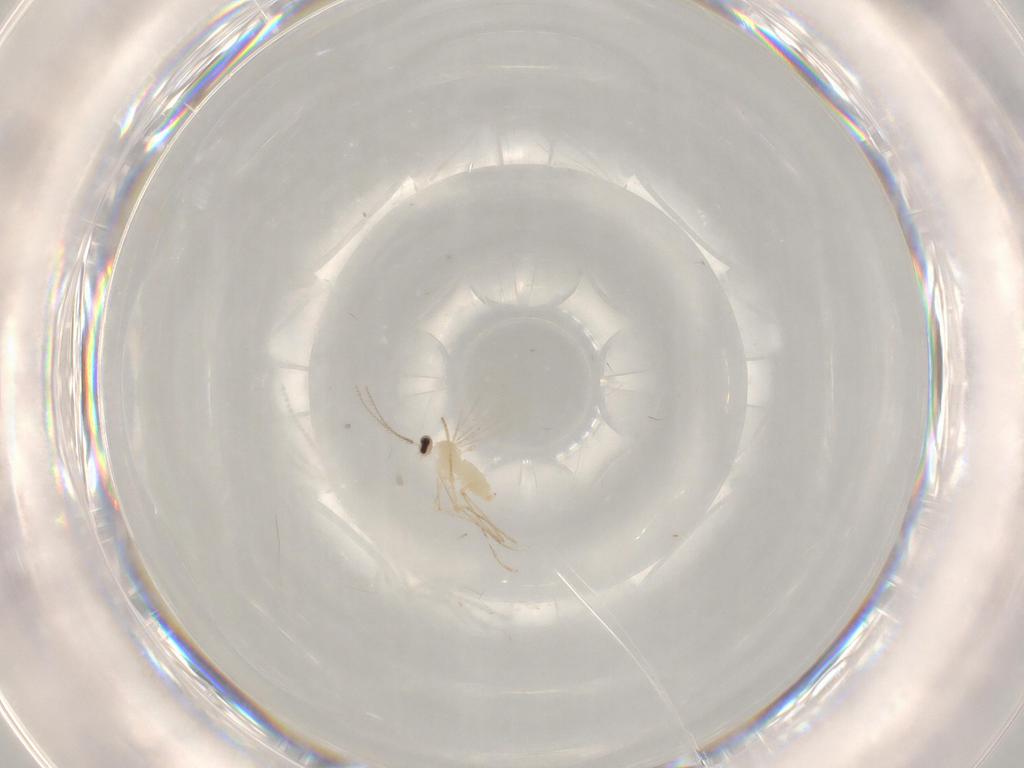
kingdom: Animalia
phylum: Arthropoda
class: Insecta
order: Diptera
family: Cecidomyiidae
